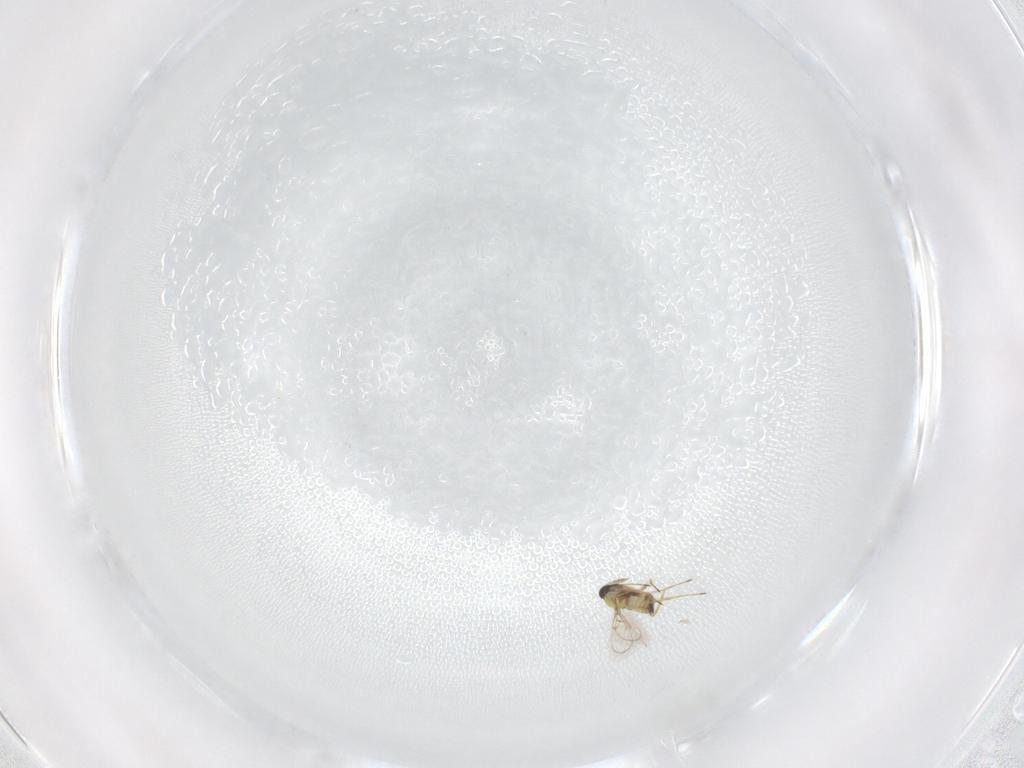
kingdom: Animalia
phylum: Arthropoda
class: Insecta
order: Hymenoptera
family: Trichogrammatidae
